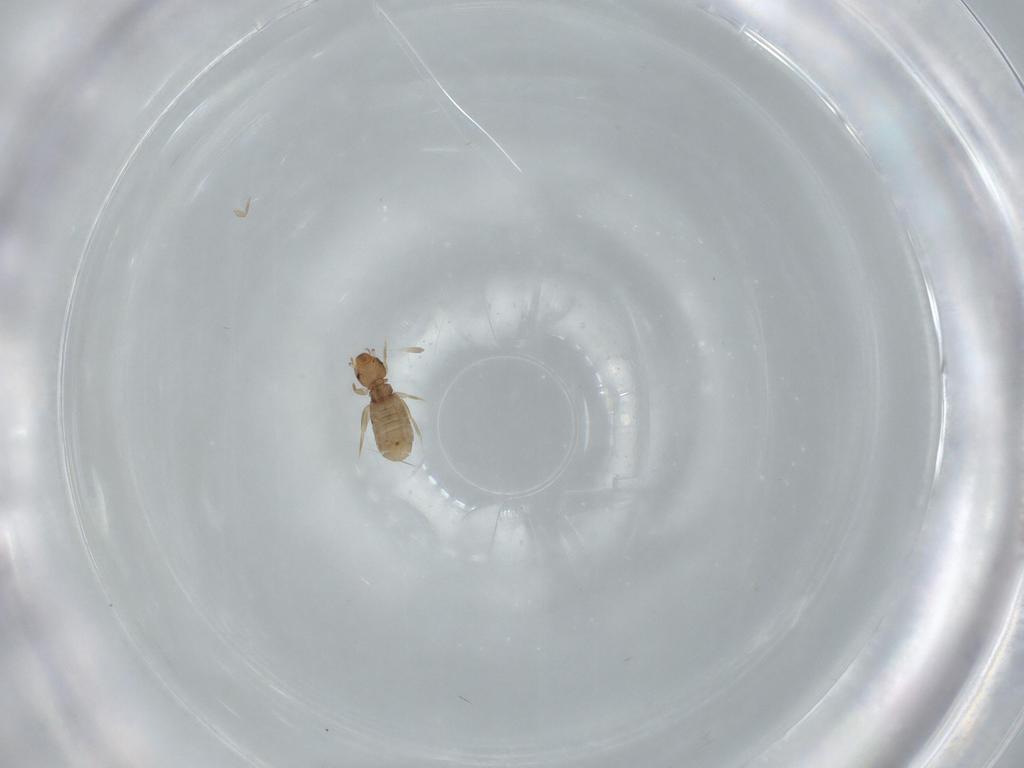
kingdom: Animalia
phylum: Arthropoda
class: Insecta
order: Psocodea
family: Liposcelididae
